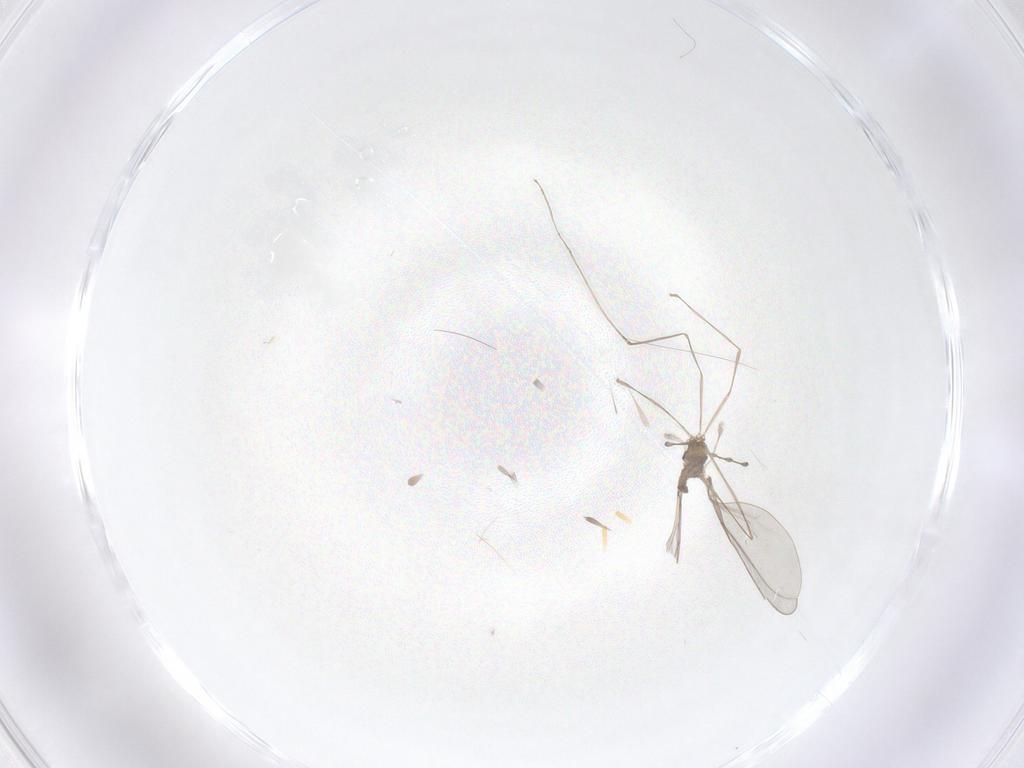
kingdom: Animalia
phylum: Arthropoda
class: Insecta
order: Diptera
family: Cecidomyiidae
